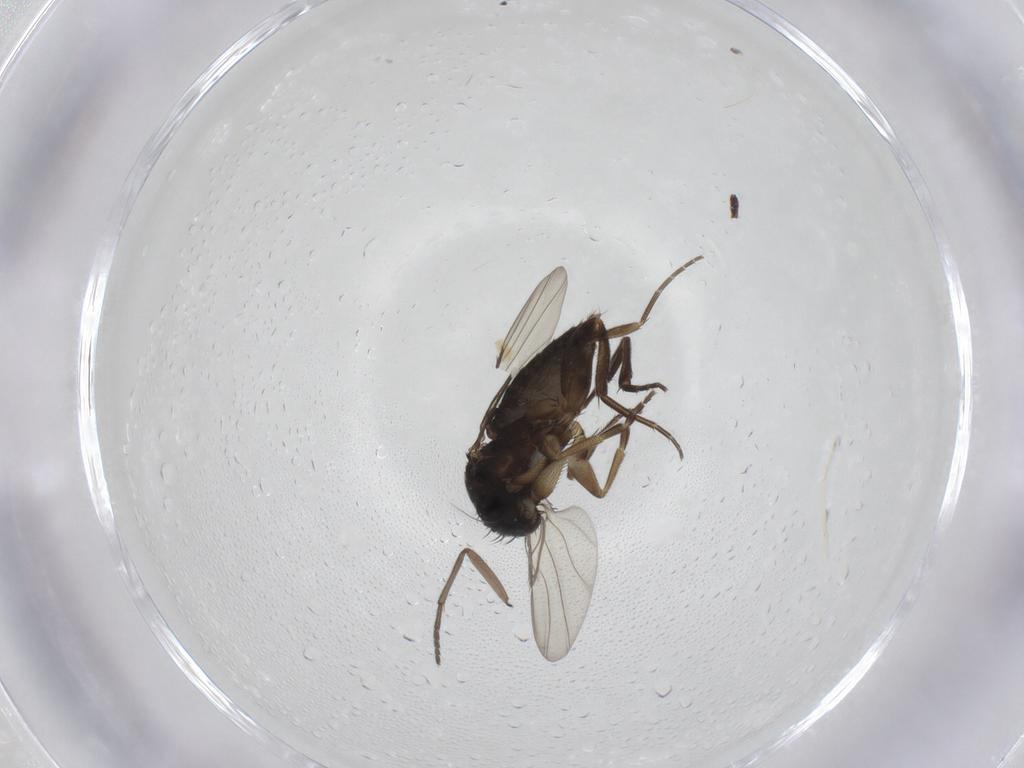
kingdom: Animalia
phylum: Arthropoda
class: Insecta
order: Diptera
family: Phoridae
